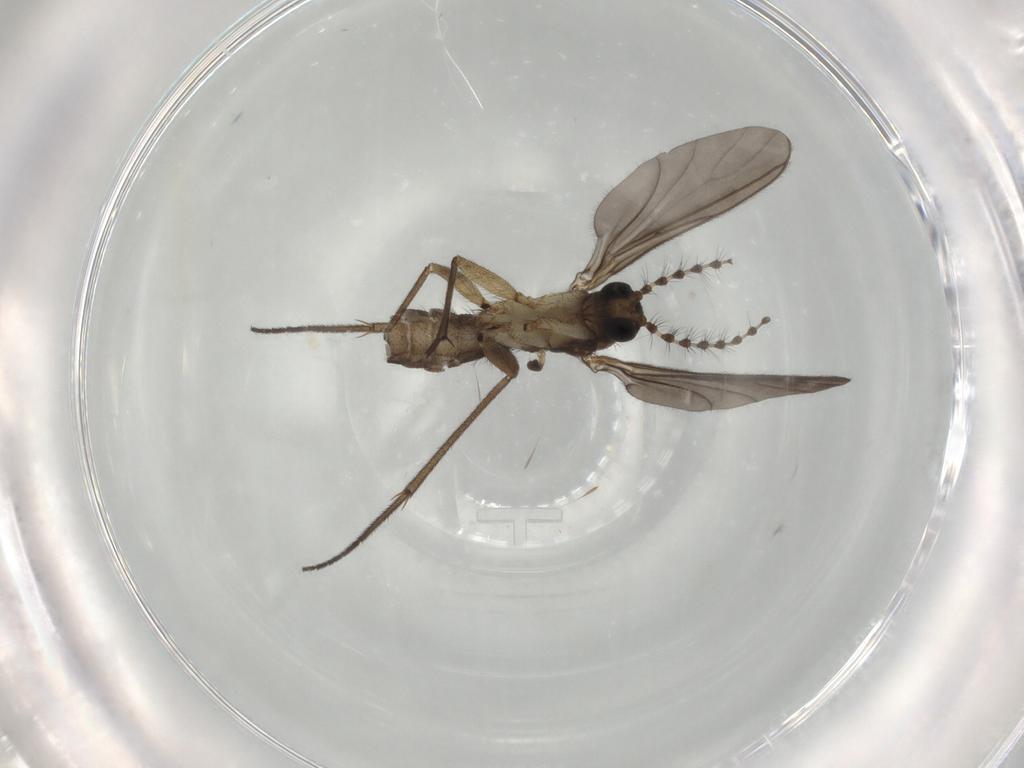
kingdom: Animalia
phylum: Arthropoda
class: Insecta
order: Diptera
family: Sciaridae
